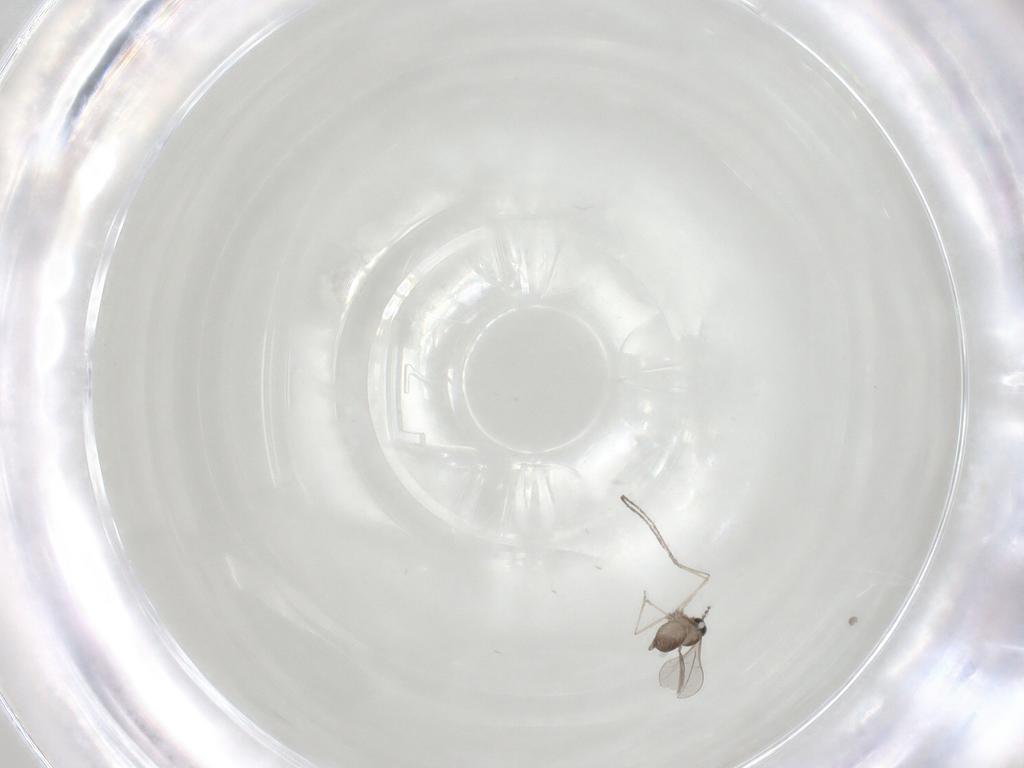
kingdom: Animalia
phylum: Arthropoda
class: Insecta
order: Diptera
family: Cecidomyiidae
